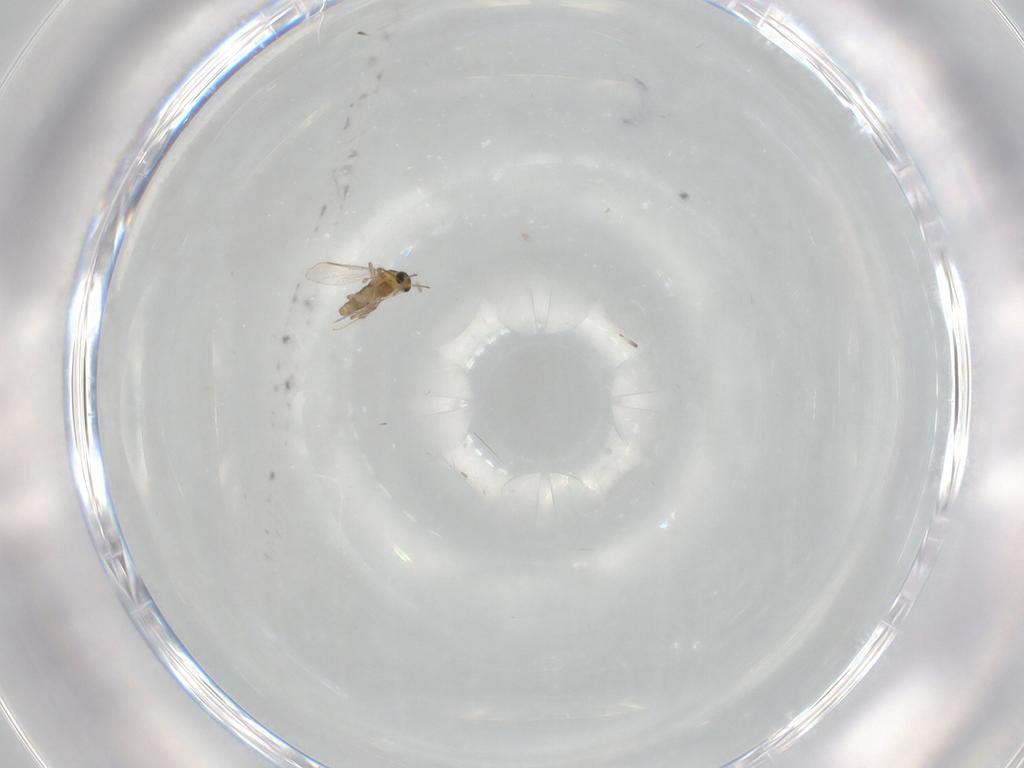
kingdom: Animalia
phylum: Arthropoda
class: Insecta
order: Diptera
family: Chironomidae
